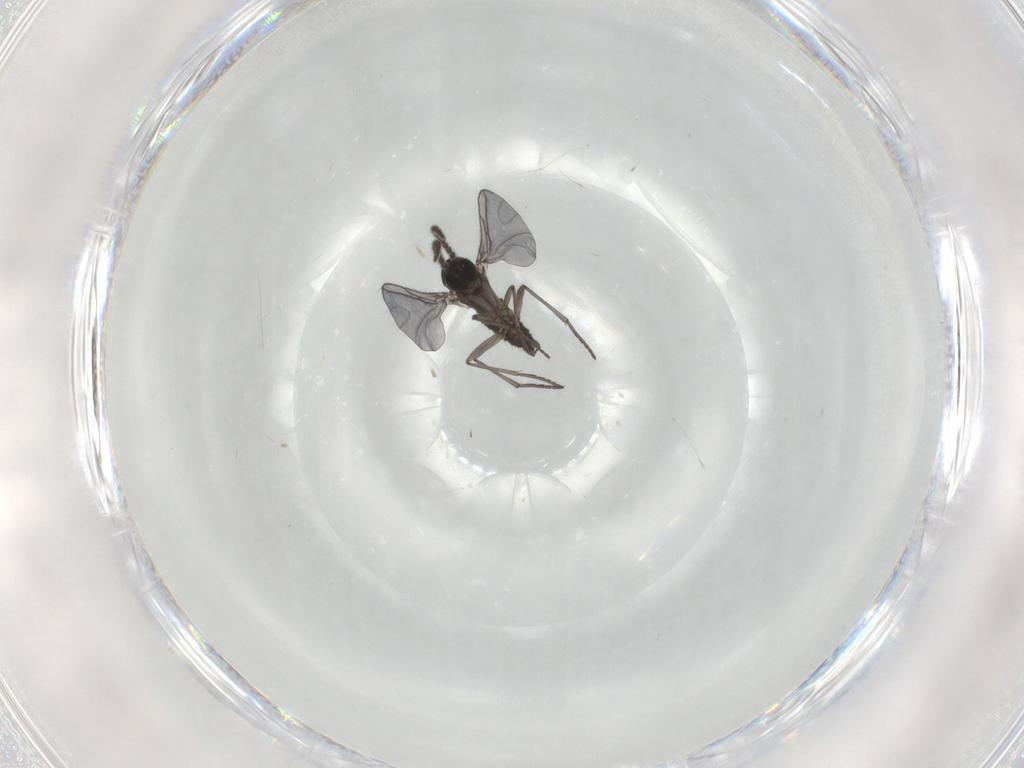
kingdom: Animalia
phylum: Arthropoda
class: Insecta
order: Diptera
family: Cecidomyiidae
